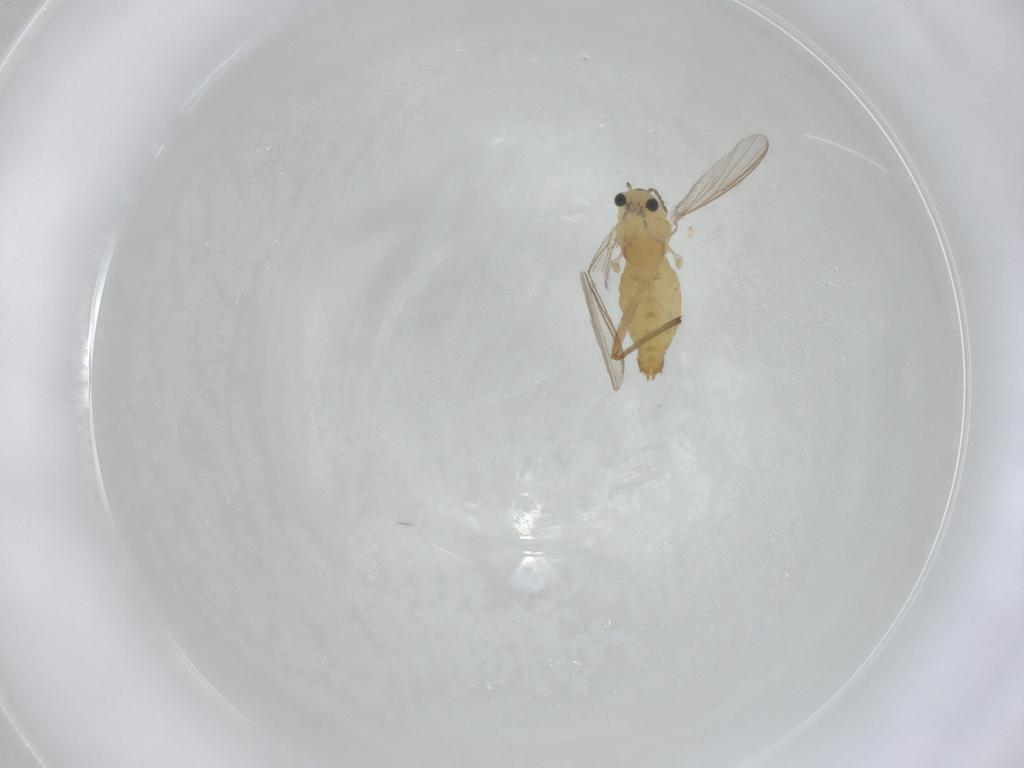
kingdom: Animalia
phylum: Arthropoda
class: Insecta
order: Diptera
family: Chironomidae
